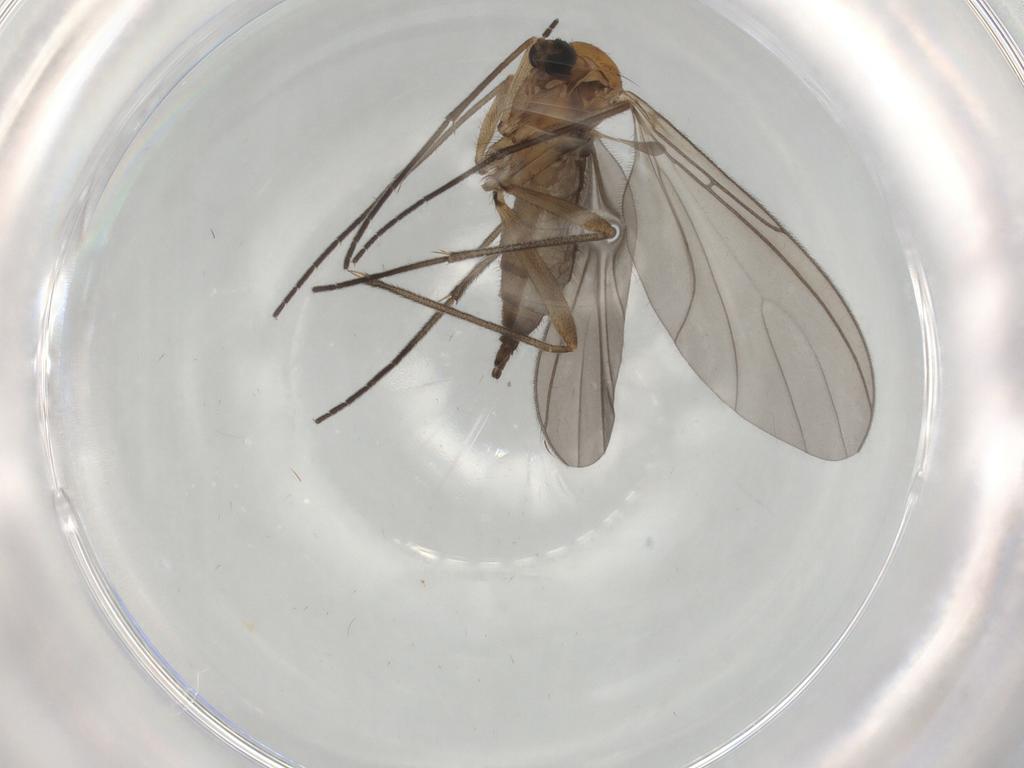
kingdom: Animalia
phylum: Arthropoda
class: Insecta
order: Diptera
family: Sciaridae
